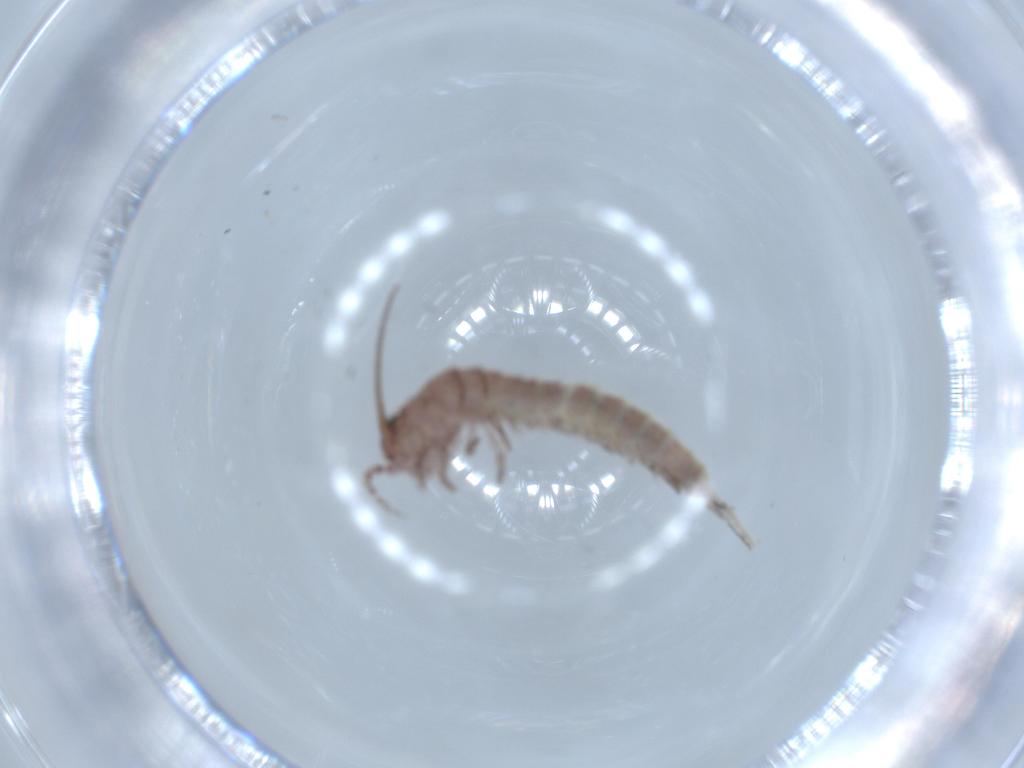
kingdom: Animalia
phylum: Arthropoda
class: Insecta
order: Archaeognatha
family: Machilidae
